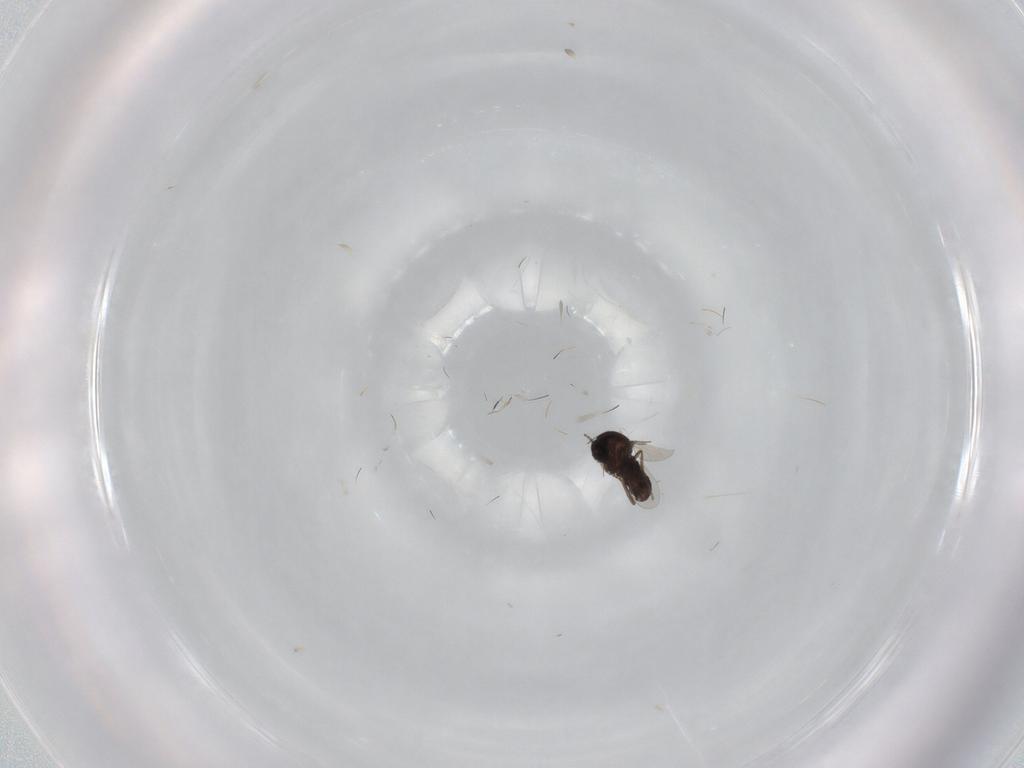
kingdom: Animalia
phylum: Arthropoda
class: Insecta
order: Diptera
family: Ceratopogonidae
